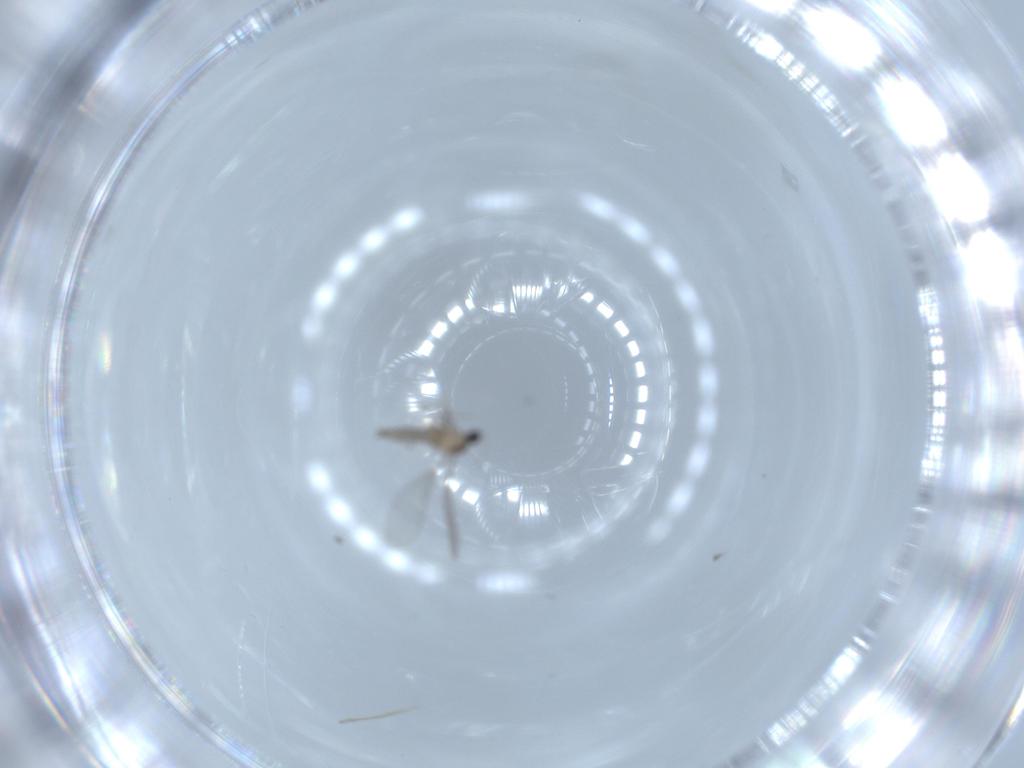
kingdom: Animalia
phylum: Arthropoda
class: Insecta
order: Diptera
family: Cecidomyiidae
